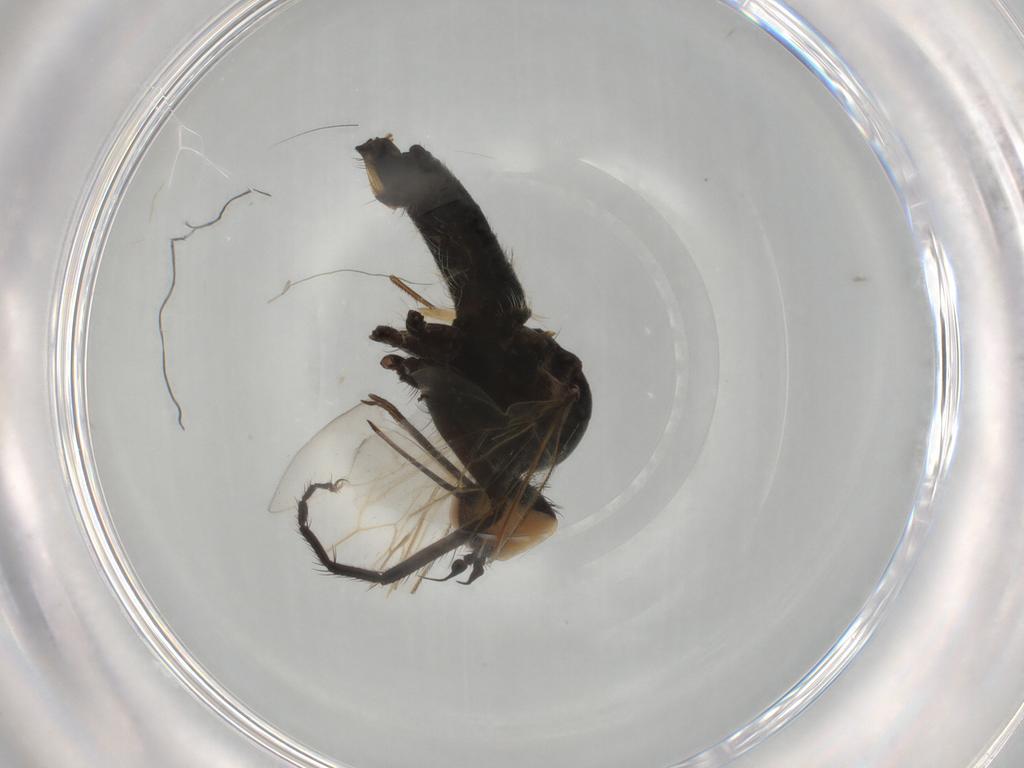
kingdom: Animalia
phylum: Arthropoda
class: Insecta
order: Diptera
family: Empididae
